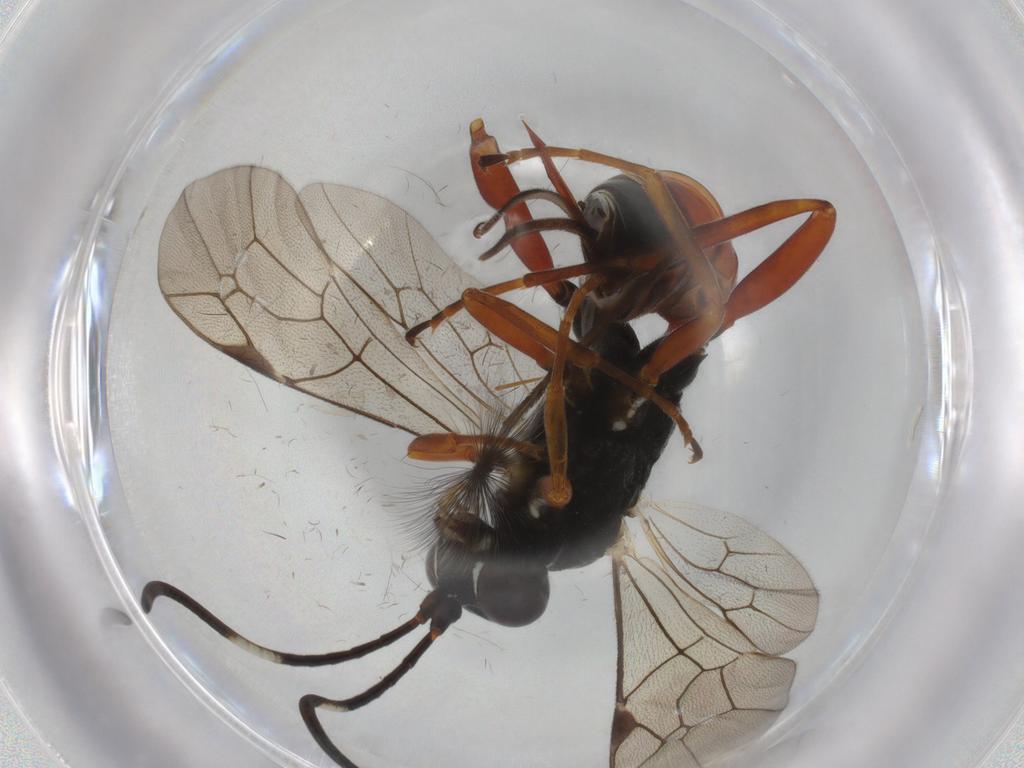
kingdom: Animalia
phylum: Arthropoda
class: Insecta
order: Hymenoptera
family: Ichneumonidae
